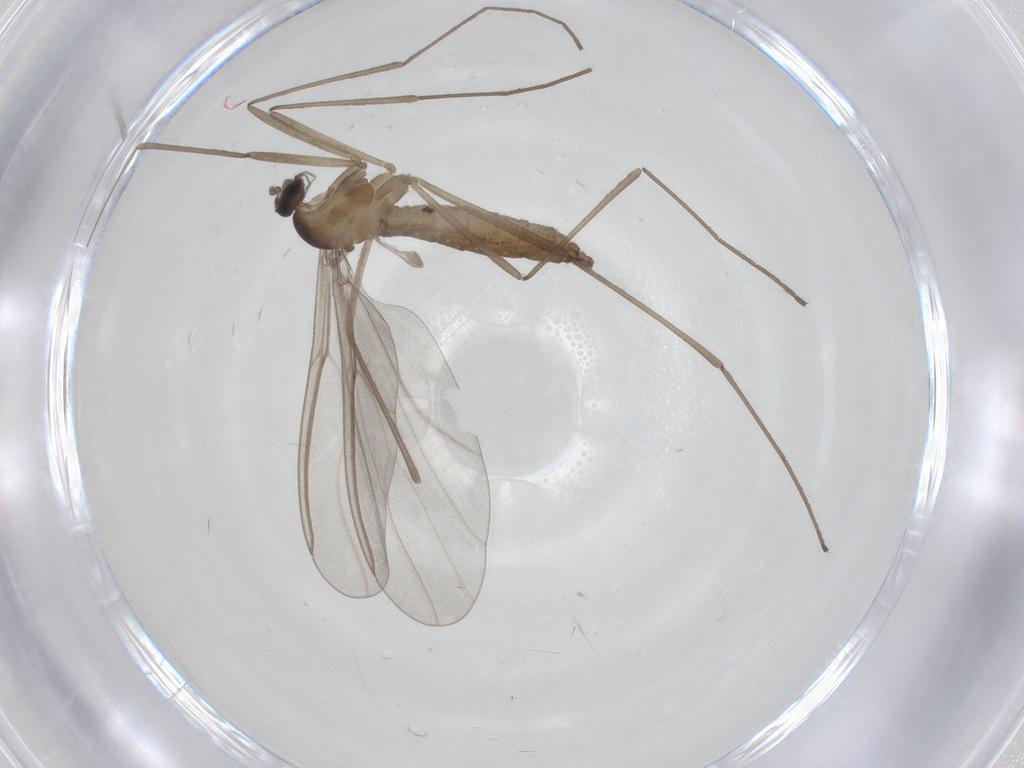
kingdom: Animalia
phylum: Arthropoda
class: Insecta
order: Diptera
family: Cecidomyiidae
